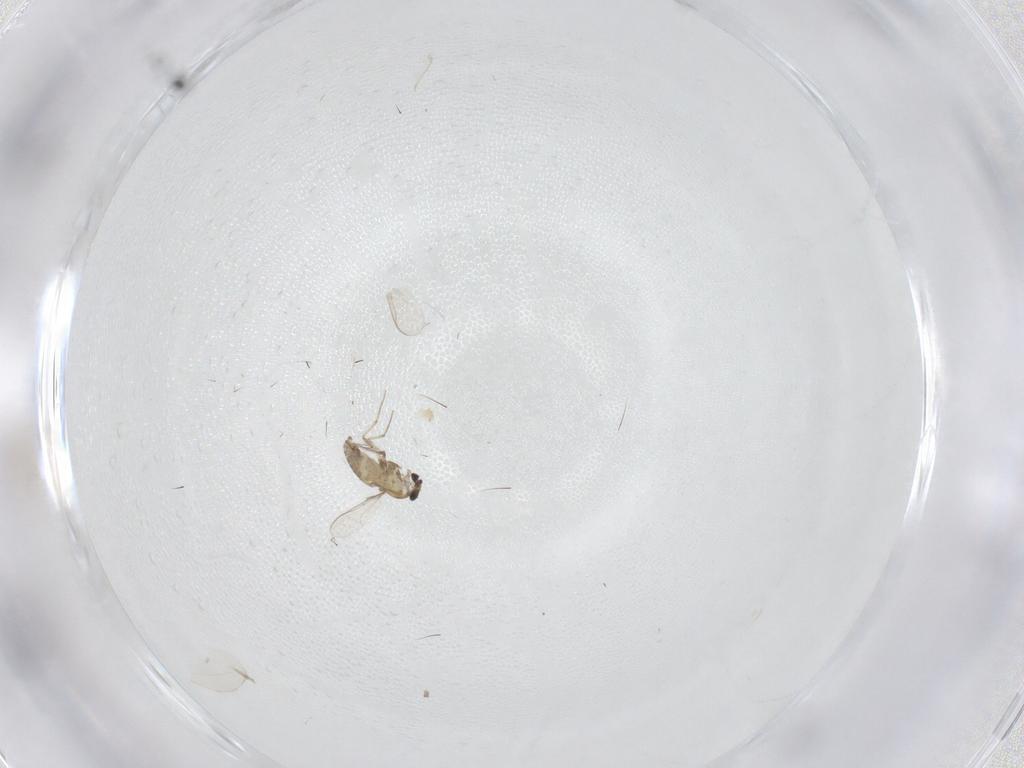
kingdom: Animalia
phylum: Arthropoda
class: Insecta
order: Diptera
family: Chironomidae
